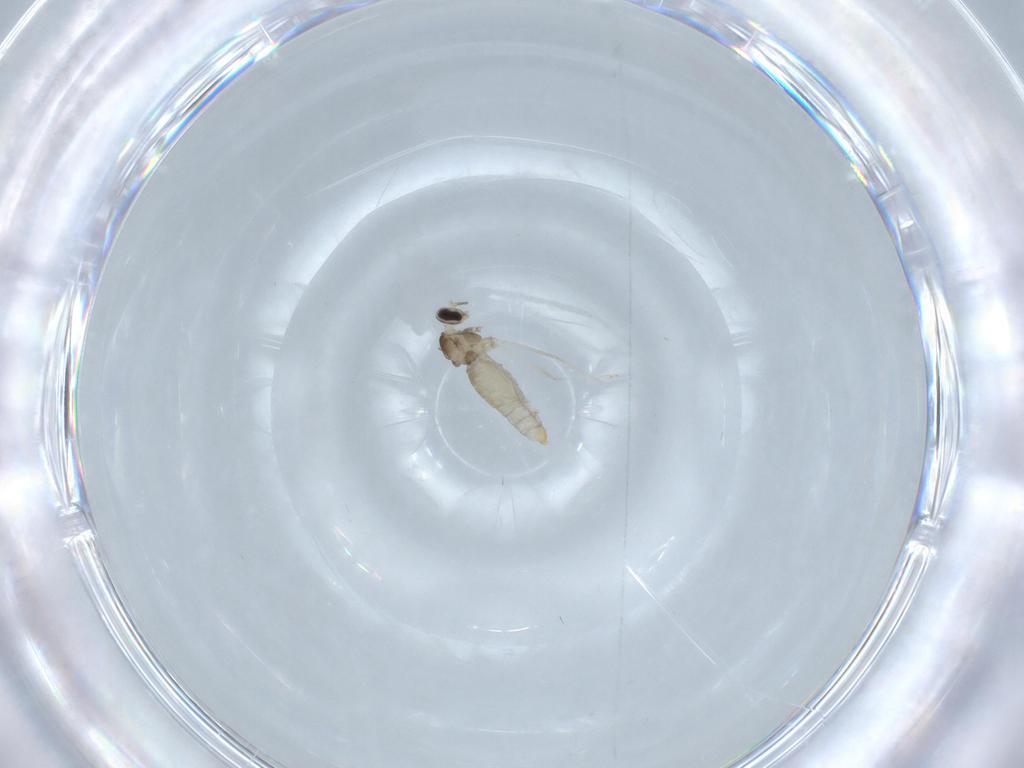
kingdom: Animalia
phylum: Arthropoda
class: Insecta
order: Diptera
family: Cecidomyiidae
